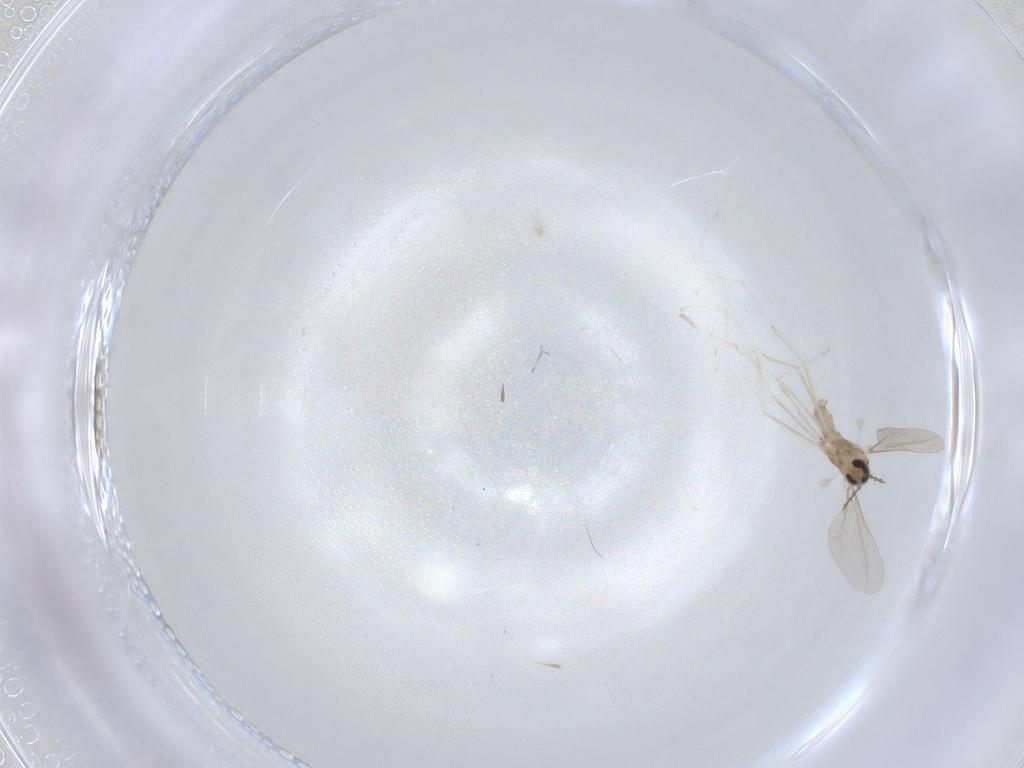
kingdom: Animalia
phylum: Arthropoda
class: Insecta
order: Diptera
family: Cecidomyiidae
